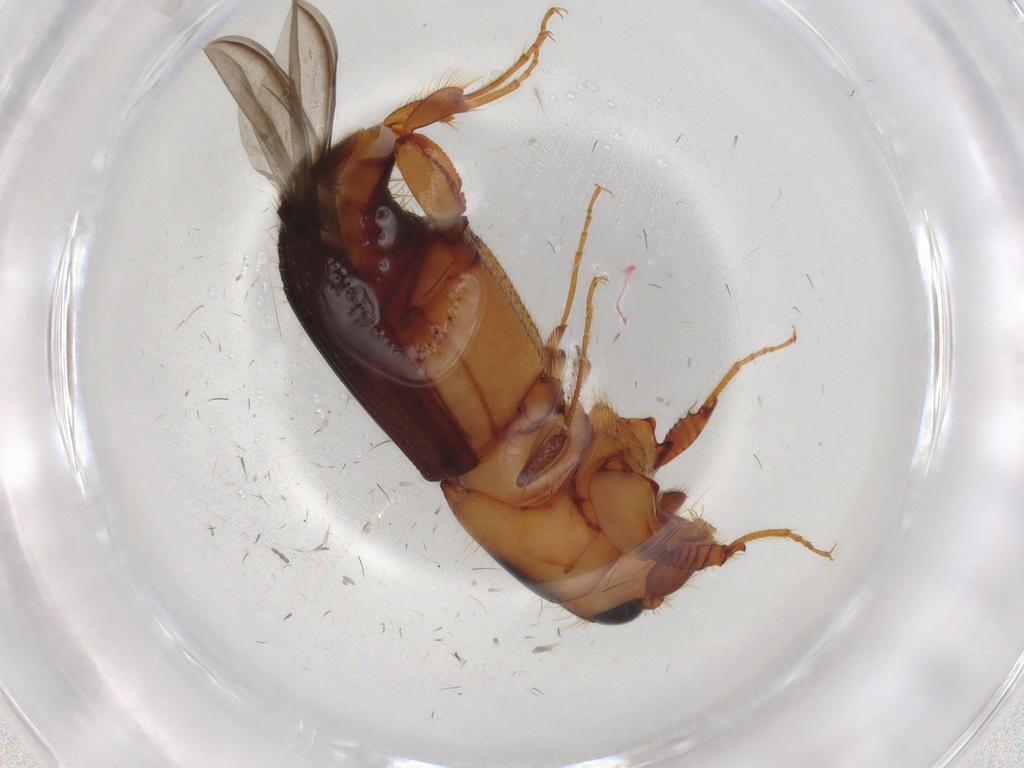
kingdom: Animalia
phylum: Arthropoda
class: Insecta
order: Coleoptera
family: Curculionidae
